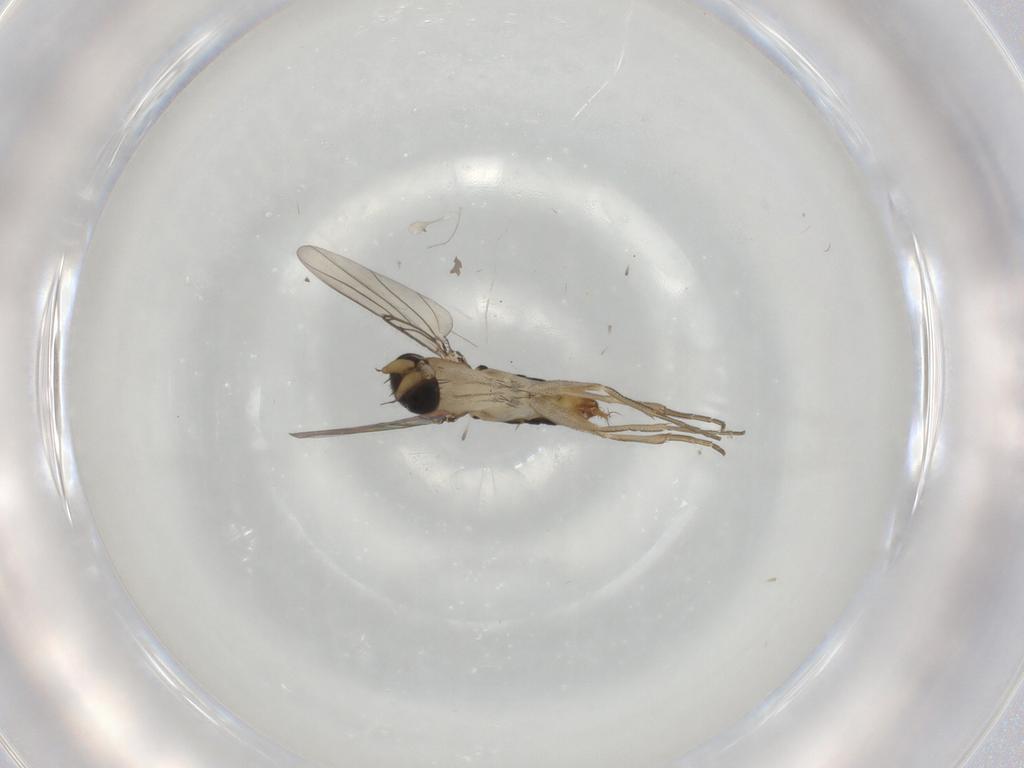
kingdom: Animalia
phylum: Arthropoda
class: Insecta
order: Diptera
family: Phoridae
